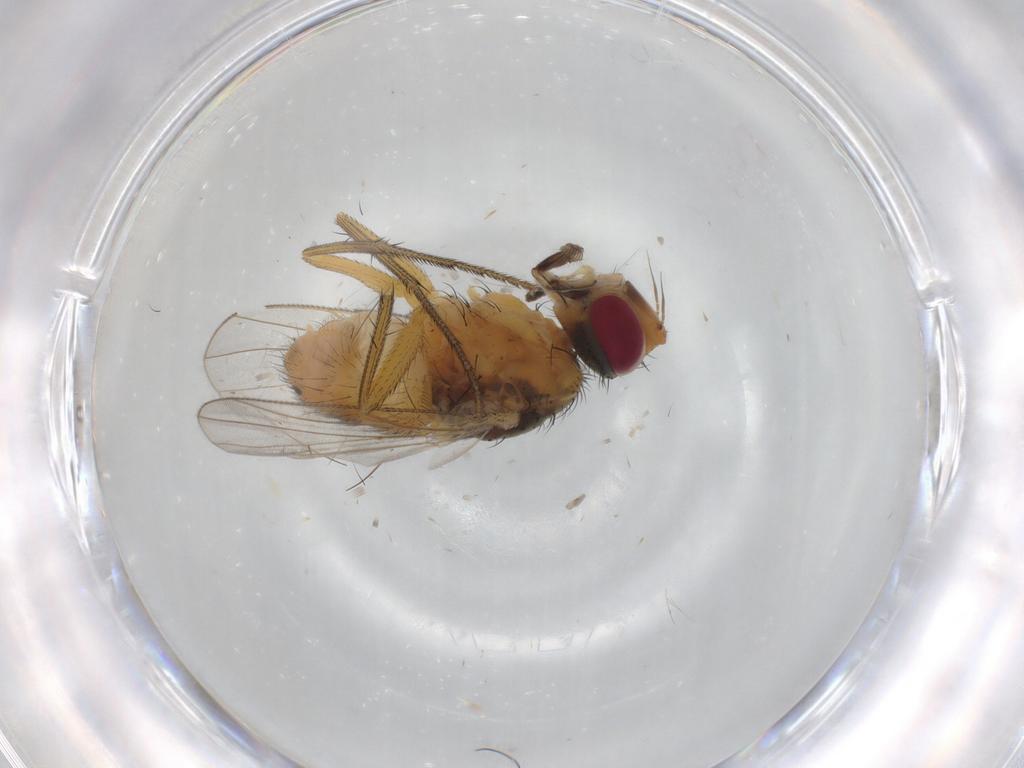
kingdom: Animalia
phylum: Arthropoda
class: Insecta
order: Diptera
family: Muscidae
